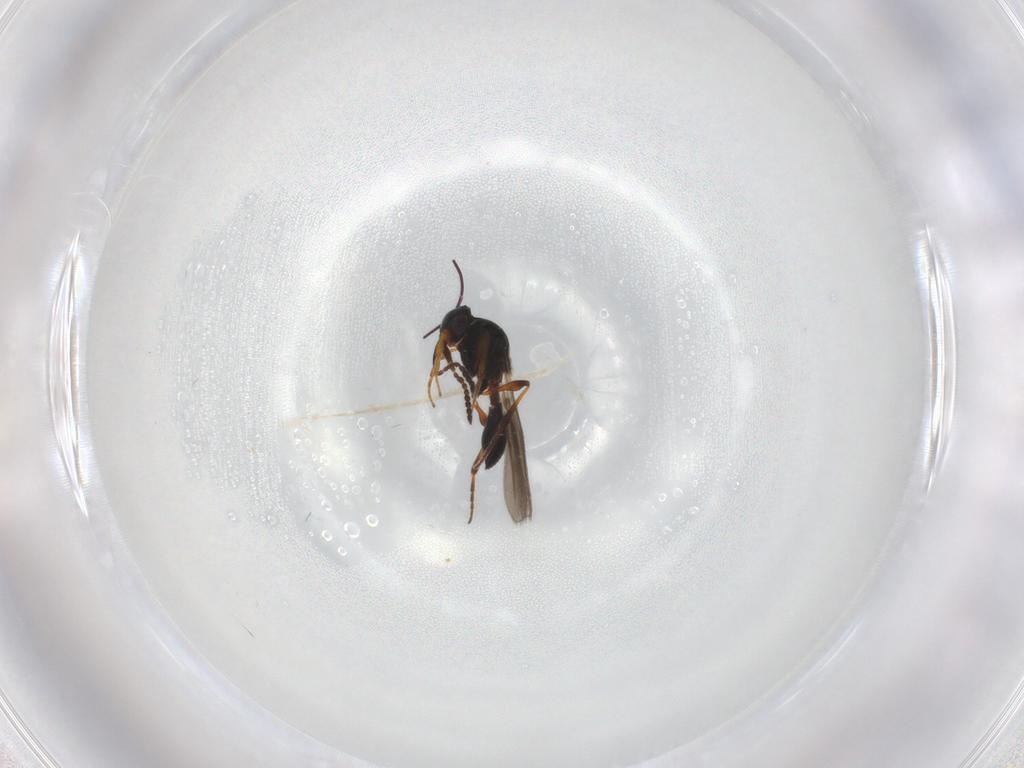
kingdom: Animalia
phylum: Arthropoda
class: Insecta
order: Hymenoptera
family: Platygastridae
